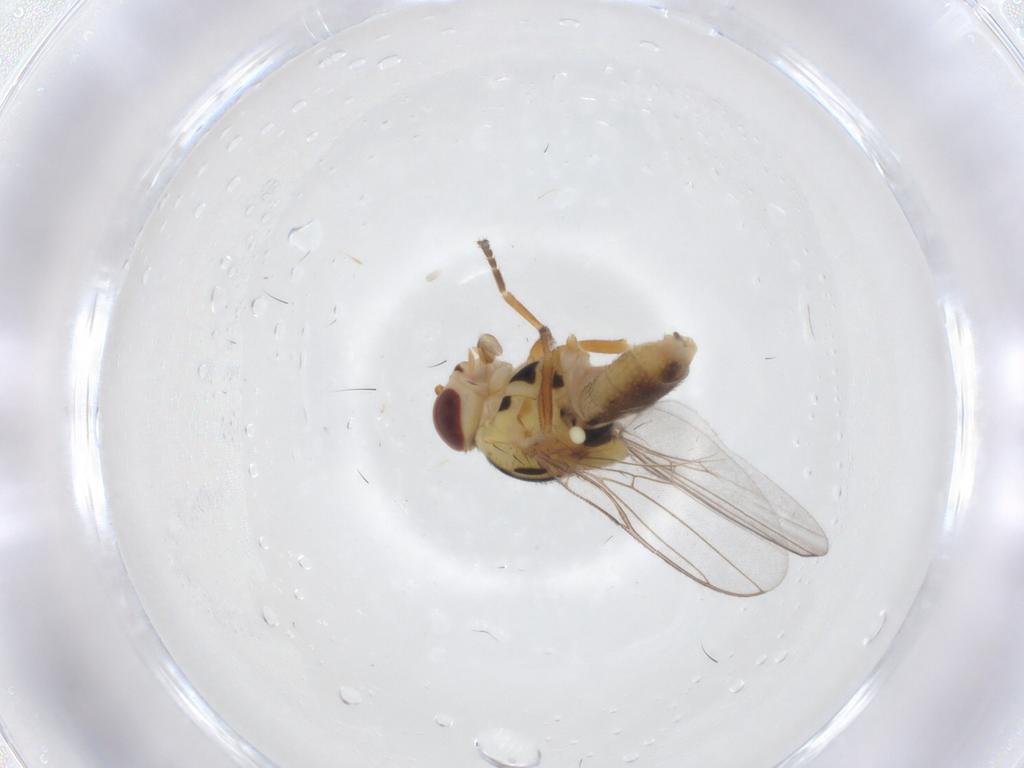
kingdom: Animalia
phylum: Arthropoda
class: Insecta
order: Diptera
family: Chloropidae
